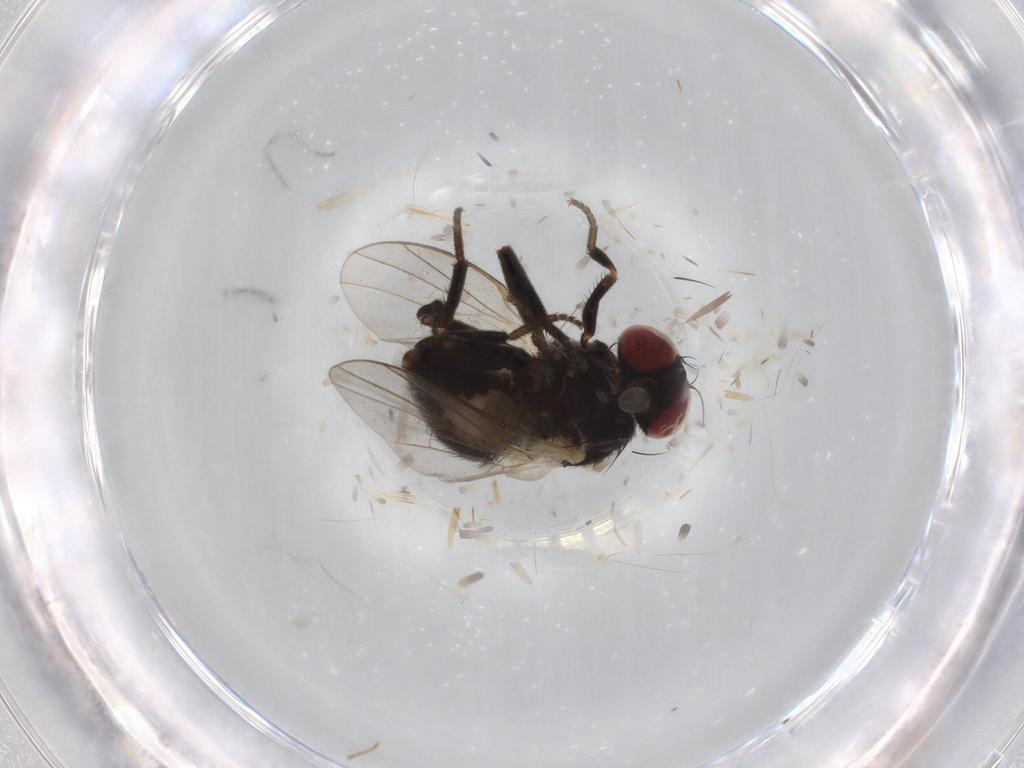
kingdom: Animalia
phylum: Arthropoda
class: Insecta
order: Diptera
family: Agromyzidae
